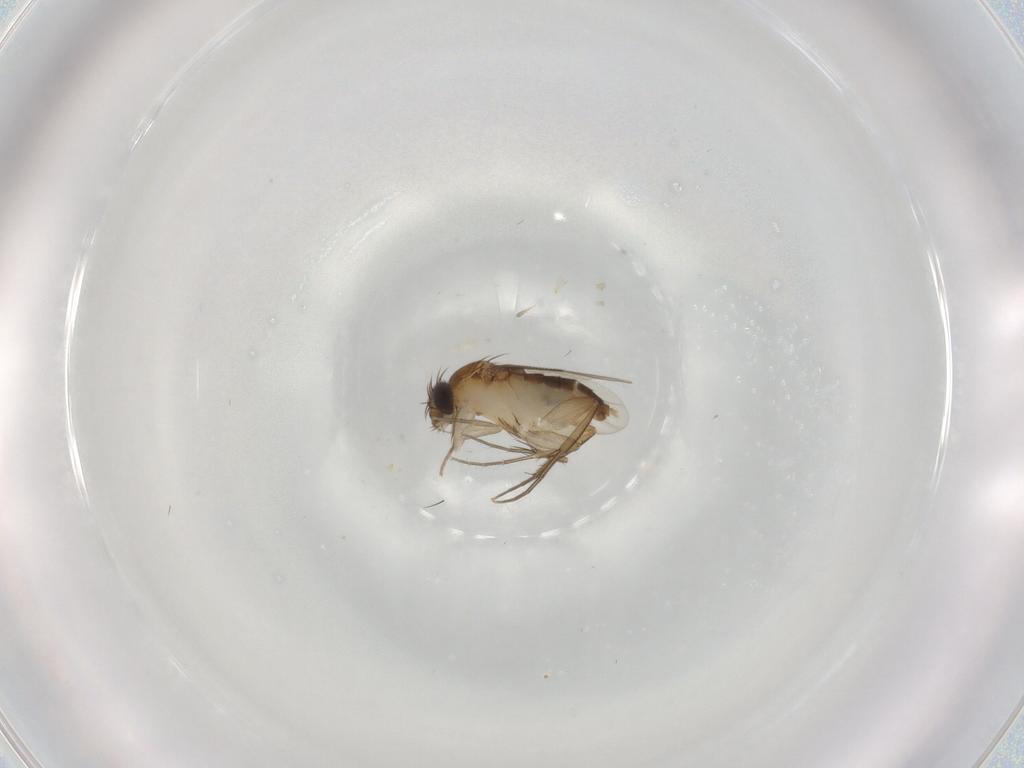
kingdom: Animalia
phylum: Arthropoda
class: Insecta
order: Diptera
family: Phoridae
